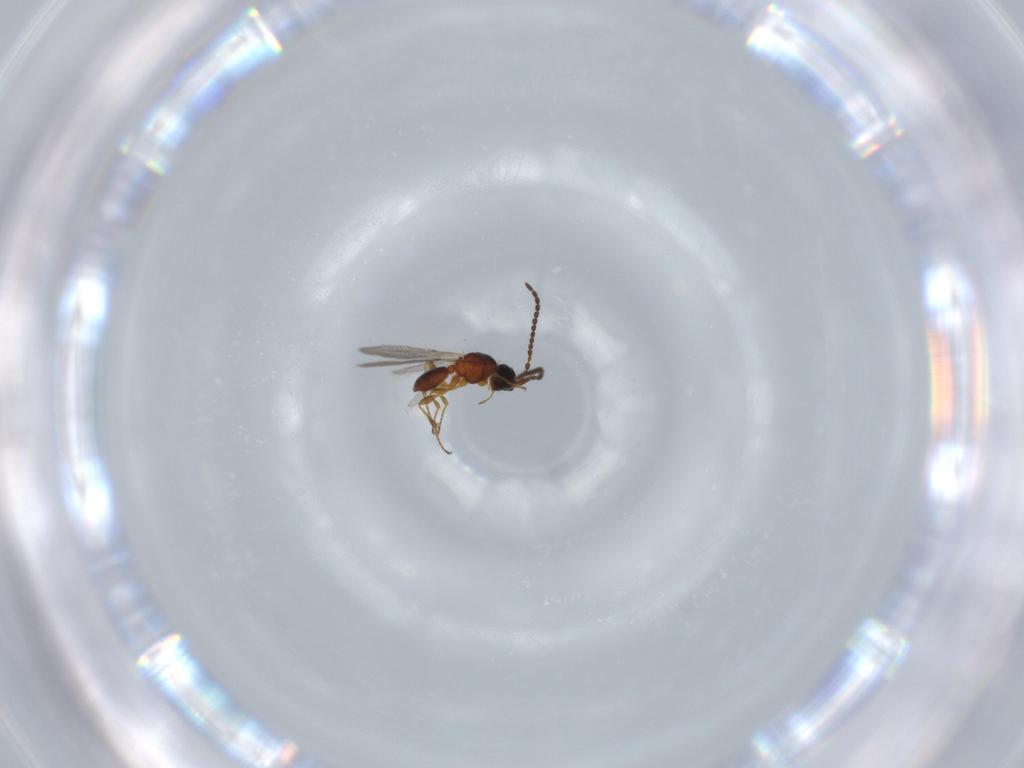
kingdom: Animalia
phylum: Arthropoda
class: Insecta
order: Hymenoptera
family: Diapriidae
